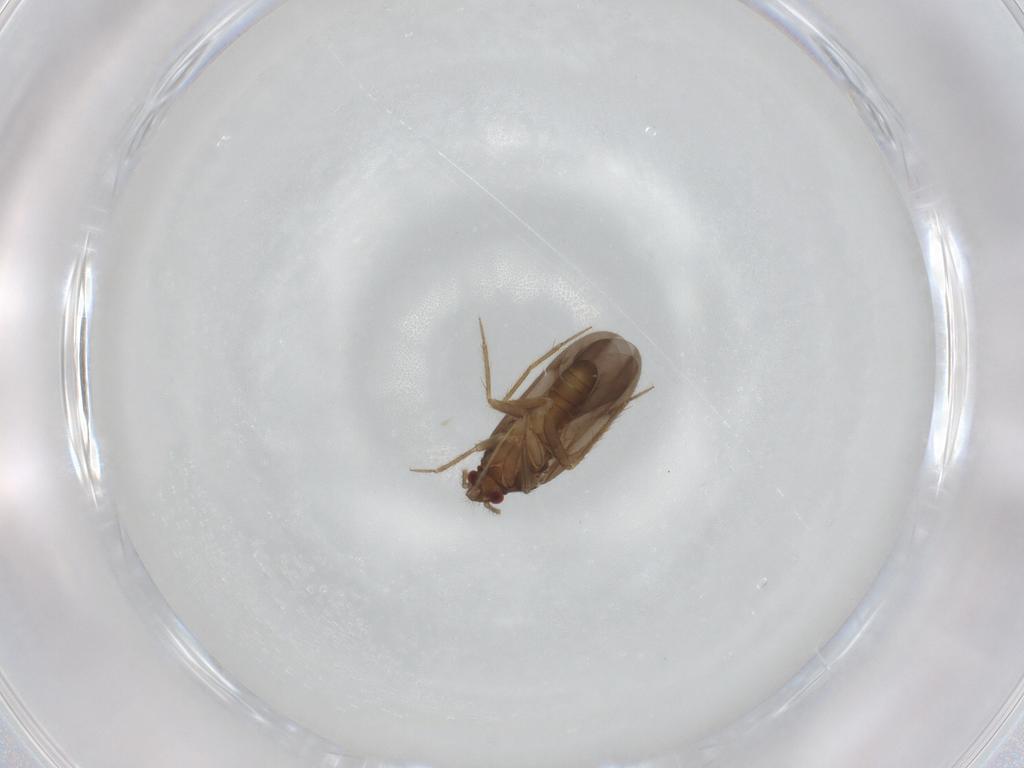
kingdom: Animalia
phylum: Arthropoda
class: Insecta
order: Hemiptera
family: Ceratocombidae
